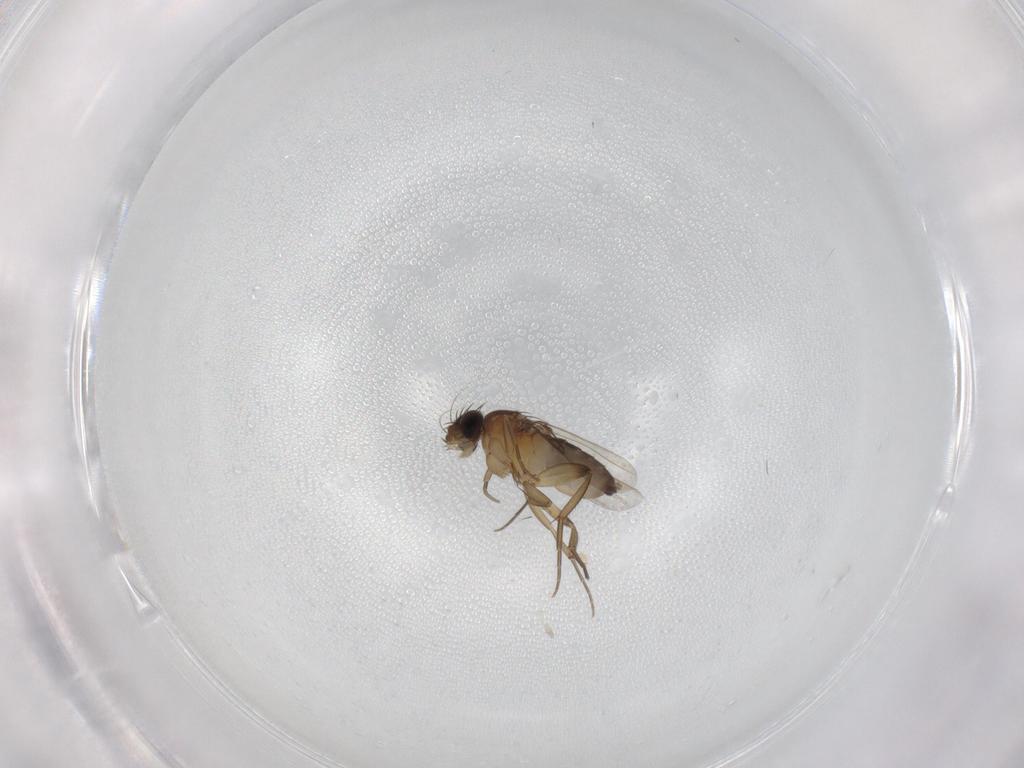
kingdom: Animalia
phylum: Arthropoda
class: Insecta
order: Diptera
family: Phoridae
